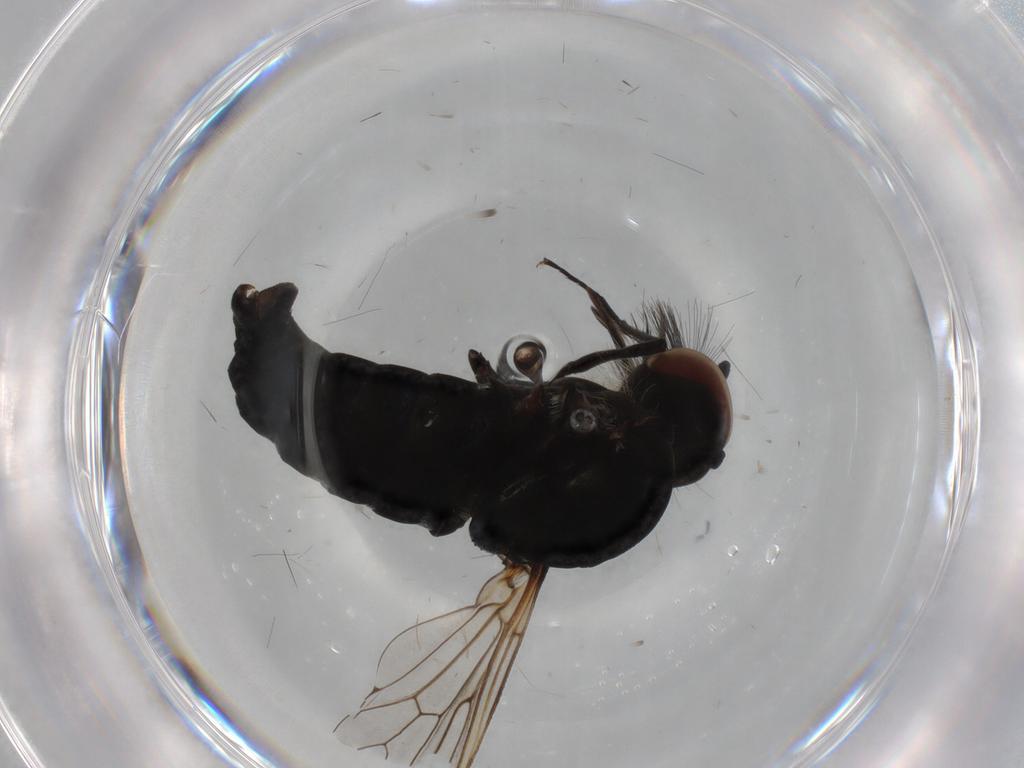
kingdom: Animalia
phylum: Arthropoda
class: Insecta
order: Diptera
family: Bombyliidae
